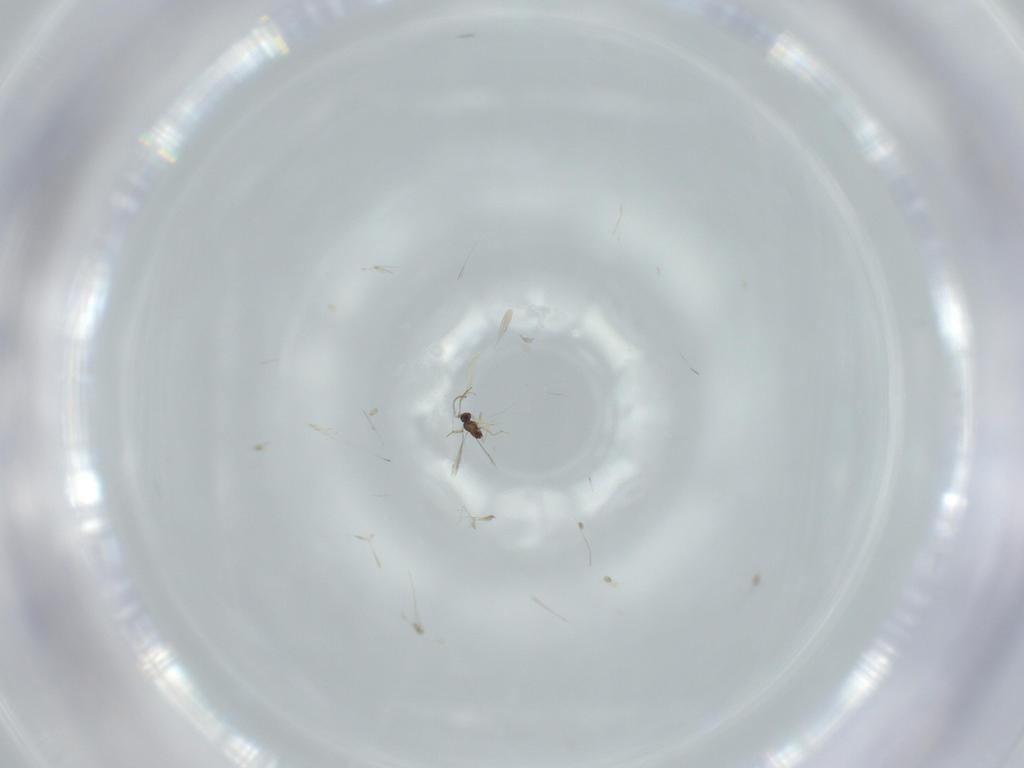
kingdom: Animalia
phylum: Arthropoda
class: Insecta
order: Hymenoptera
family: Mymaridae
